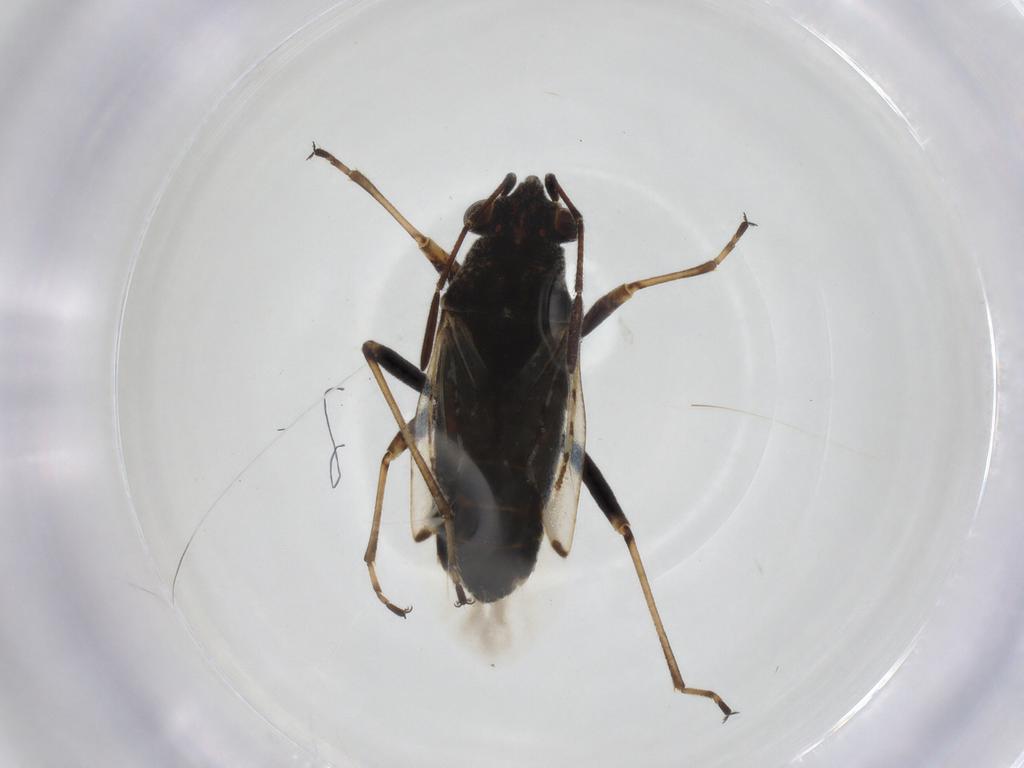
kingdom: Animalia
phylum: Arthropoda
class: Insecta
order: Hemiptera
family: Lygaeidae
